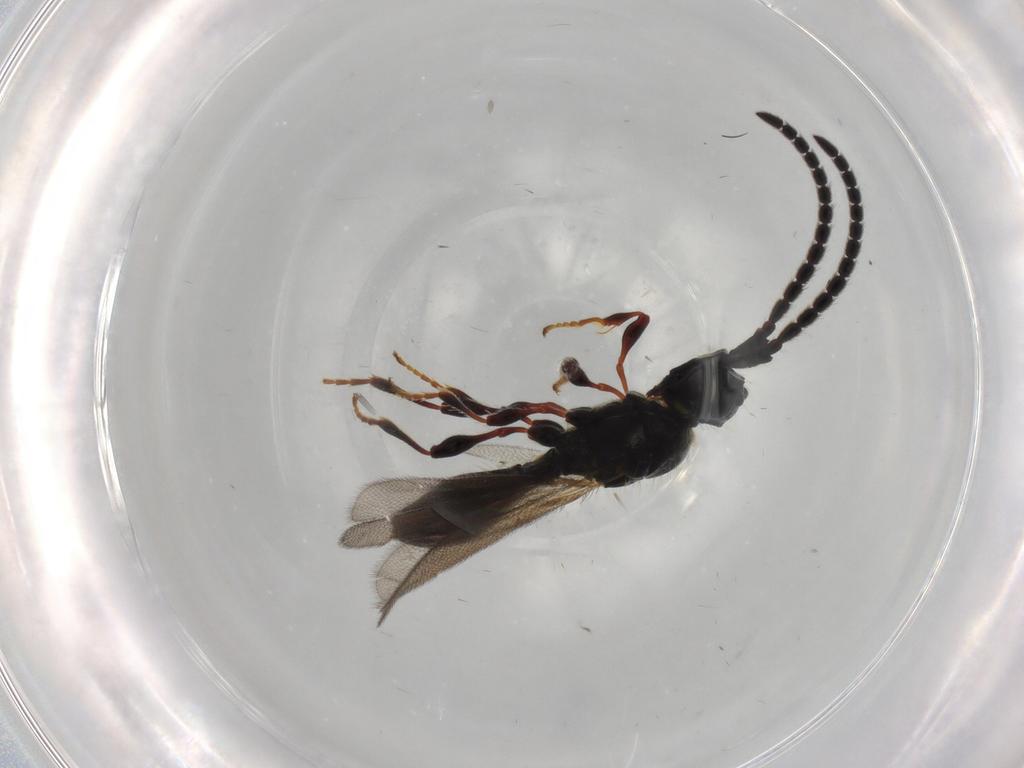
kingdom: Animalia
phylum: Arthropoda
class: Insecta
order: Hymenoptera
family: Diapriidae
